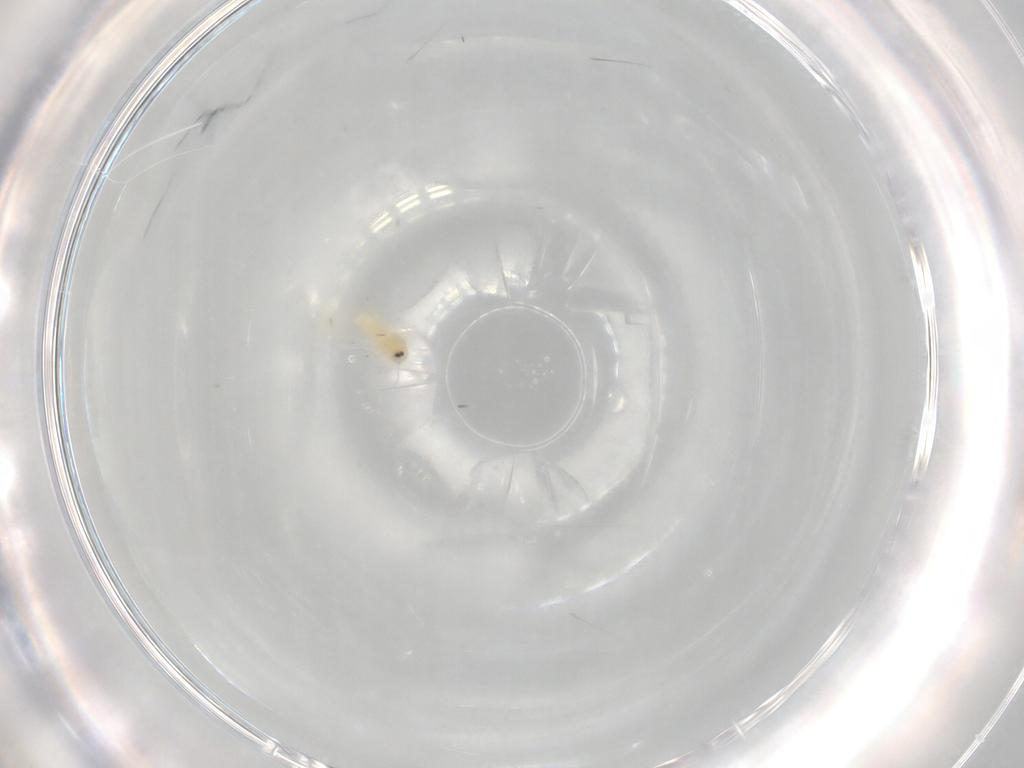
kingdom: Animalia
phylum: Arthropoda
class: Insecta
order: Hemiptera
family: Aleyrodidae
